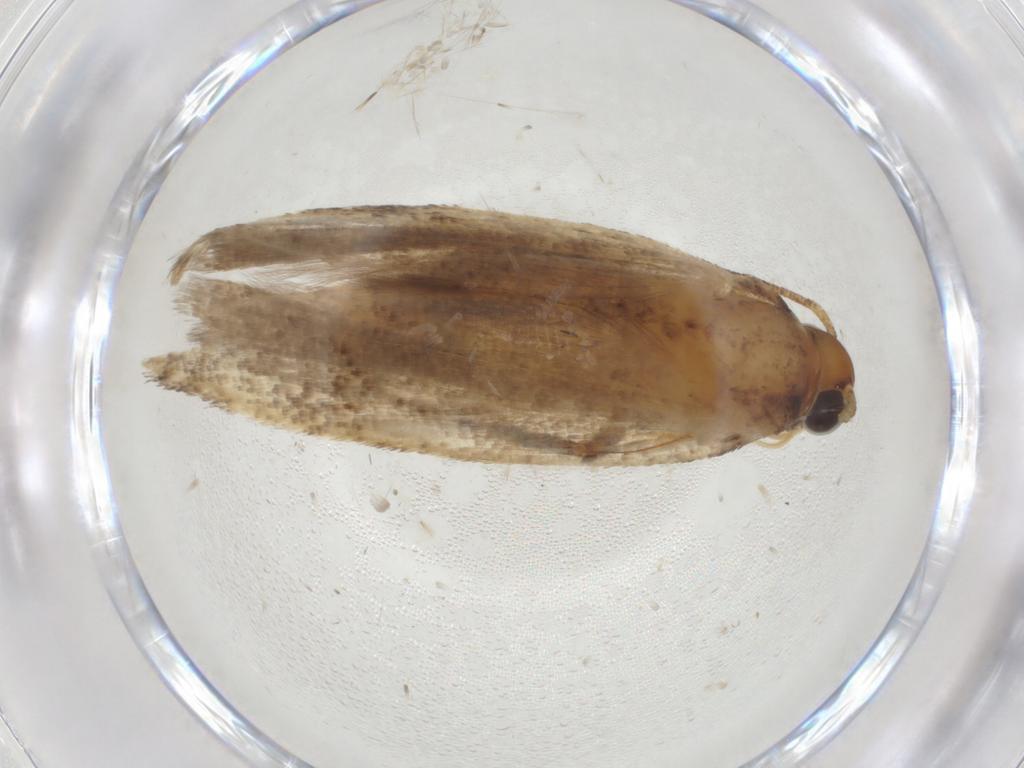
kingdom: Animalia
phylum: Arthropoda
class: Insecta
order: Lepidoptera
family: Gelechiidae
